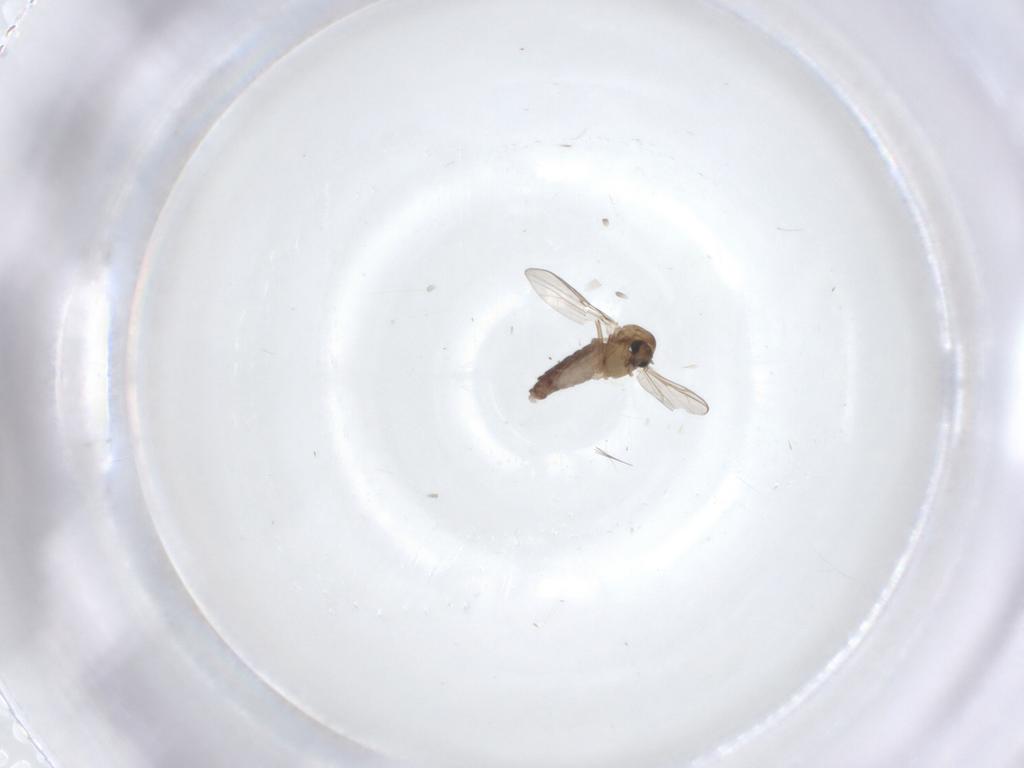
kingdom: Animalia
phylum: Arthropoda
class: Insecta
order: Diptera
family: Chironomidae
